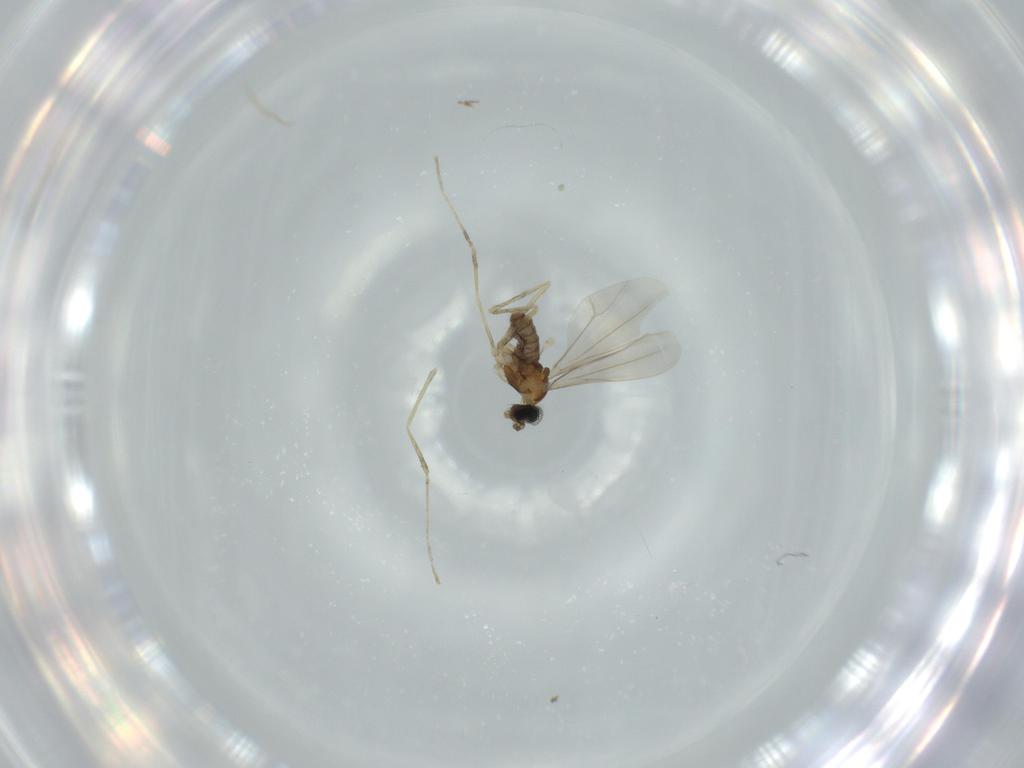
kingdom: Animalia
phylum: Arthropoda
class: Insecta
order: Diptera
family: Cecidomyiidae
